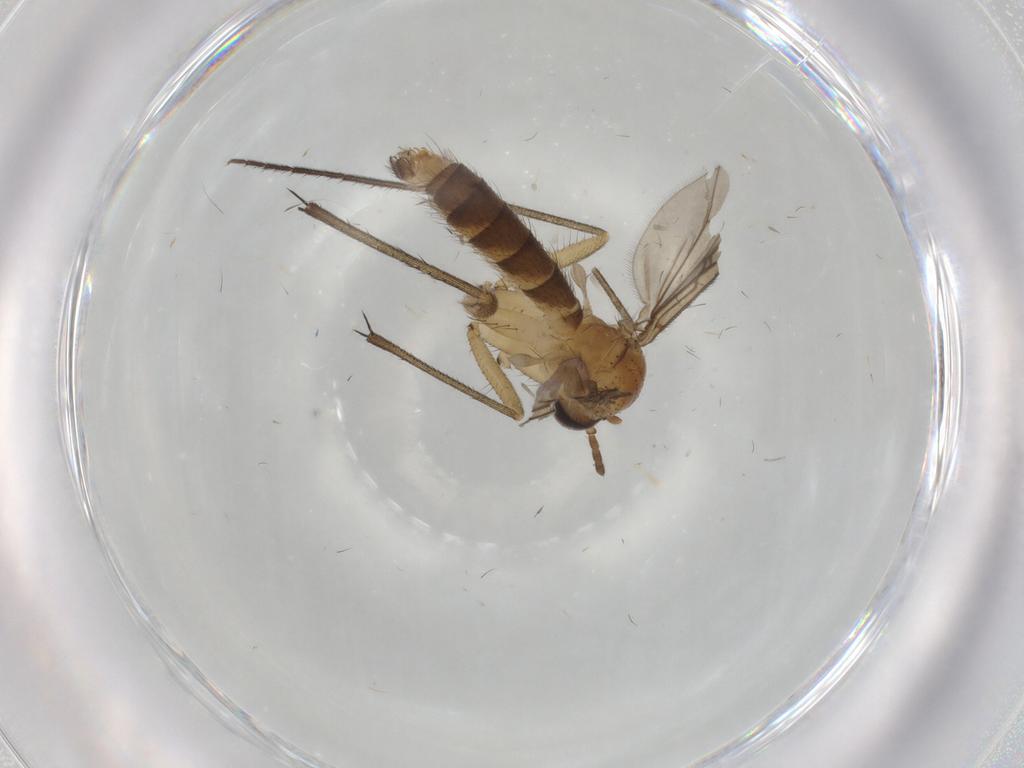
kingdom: Animalia
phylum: Arthropoda
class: Insecta
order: Diptera
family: Ceratopogonidae
